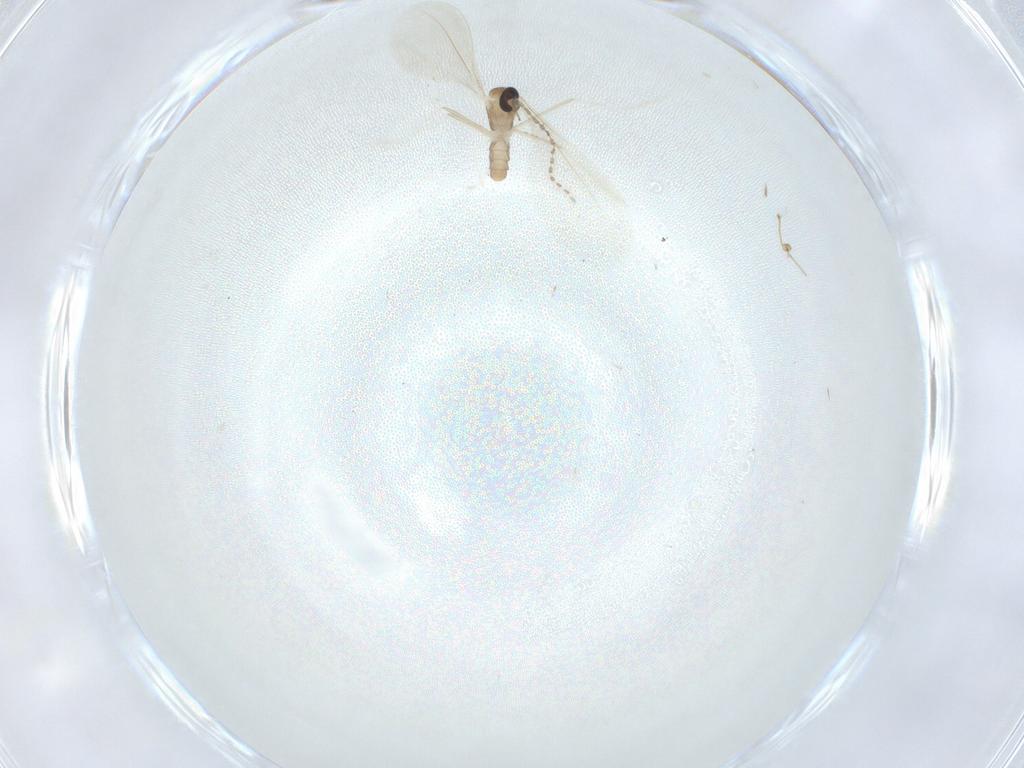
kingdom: Animalia
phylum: Arthropoda
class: Insecta
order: Diptera
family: Cecidomyiidae
